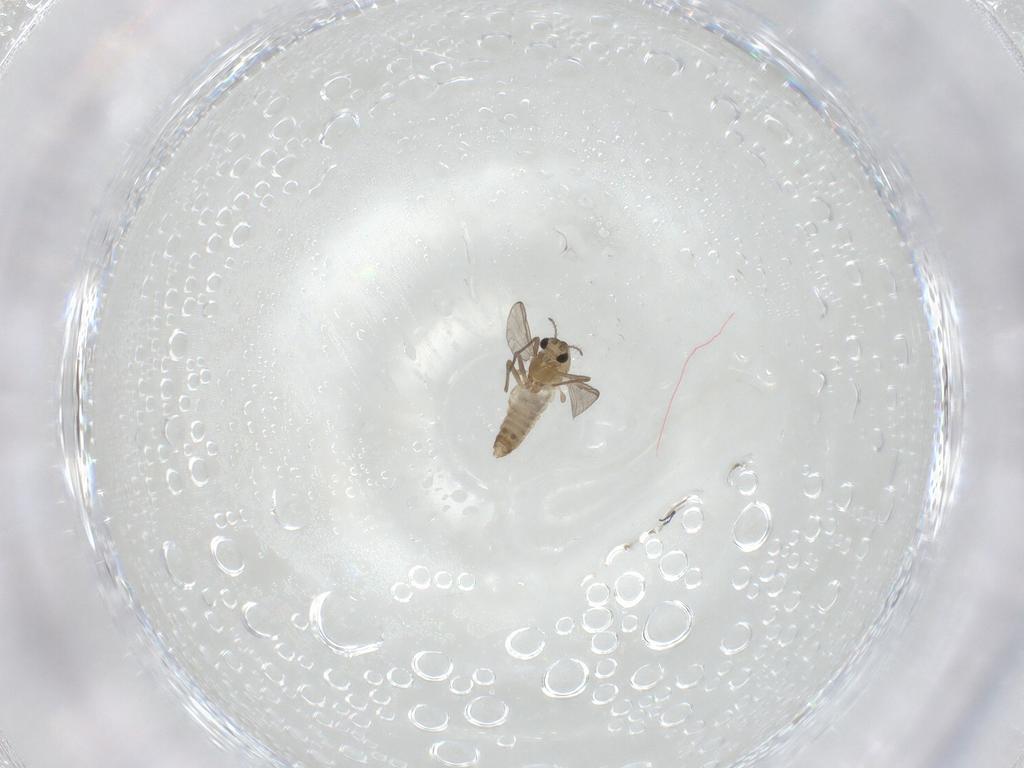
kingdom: Animalia
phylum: Arthropoda
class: Insecta
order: Diptera
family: Chironomidae
